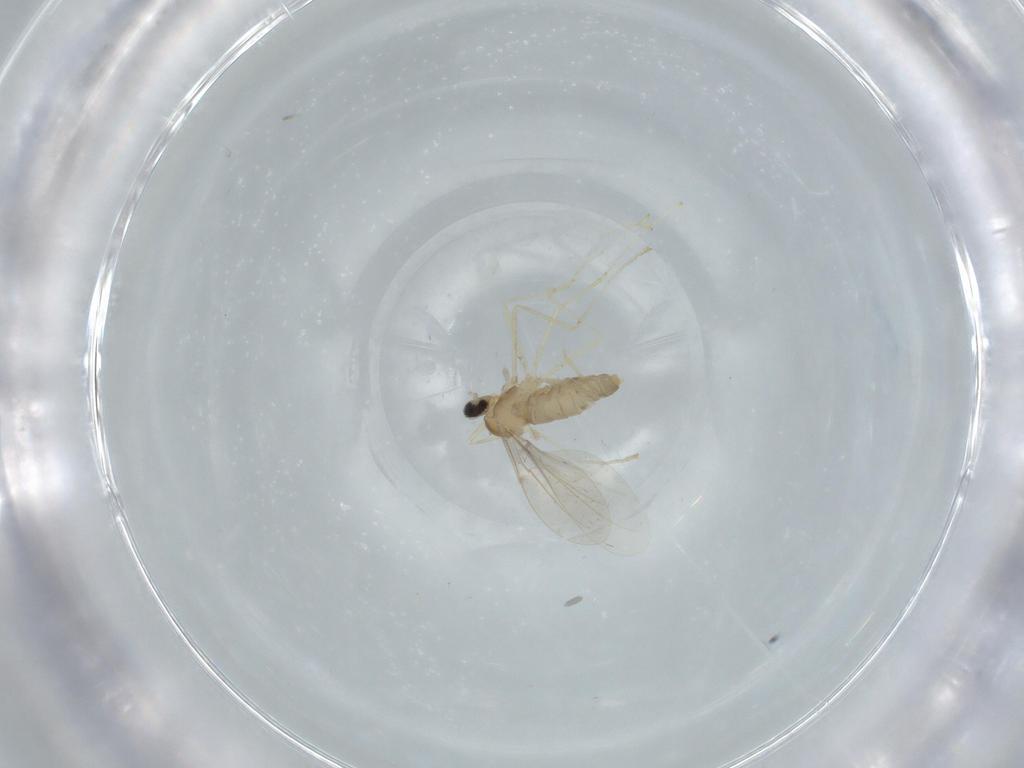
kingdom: Animalia
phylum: Arthropoda
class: Insecta
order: Diptera
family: Cecidomyiidae
